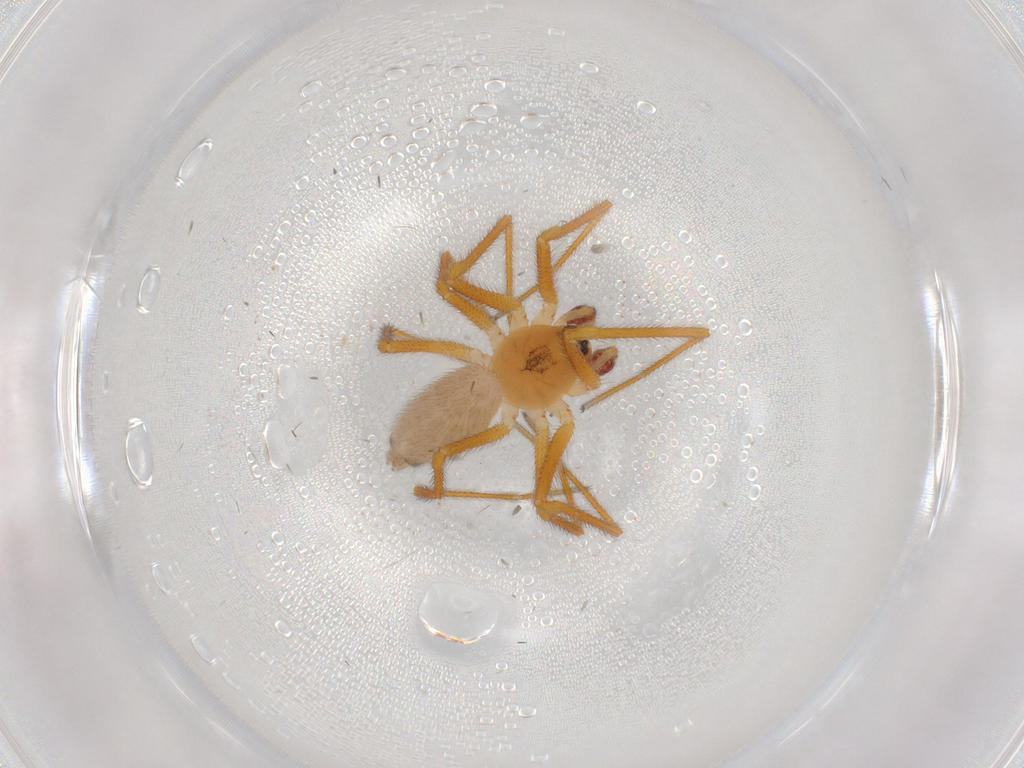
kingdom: Animalia
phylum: Arthropoda
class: Arachnida
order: Araneae
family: Linyphiidae
